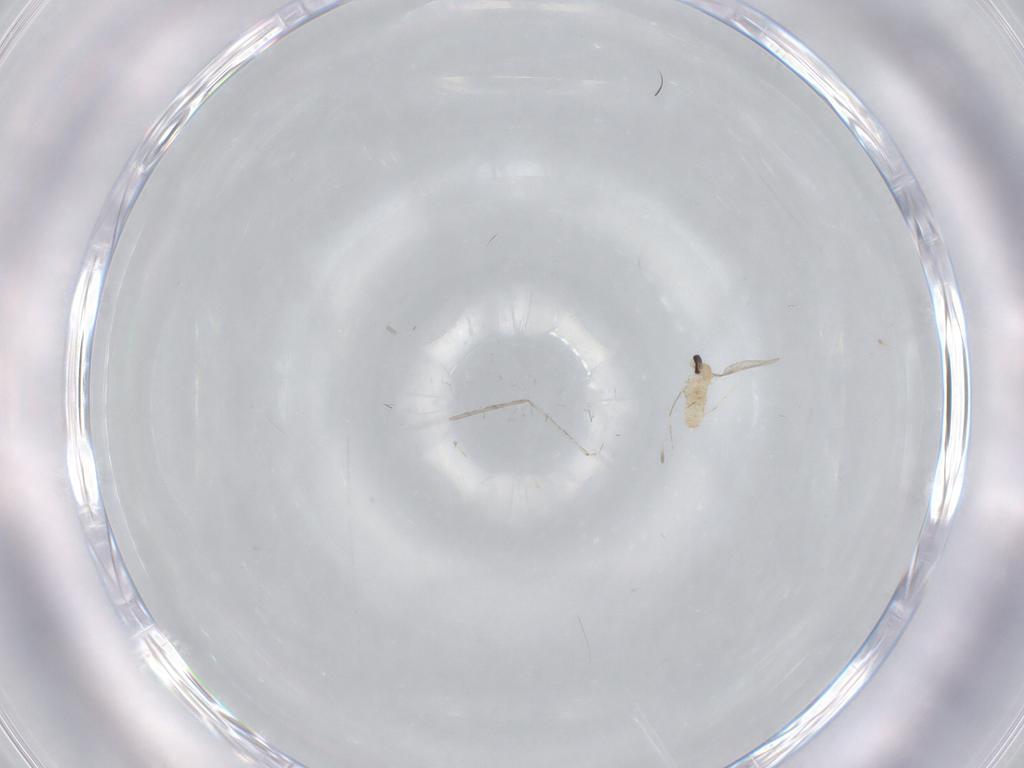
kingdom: Animalia
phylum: Arthropoda
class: Insecta
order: Diptera
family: Cecidomyiidae
